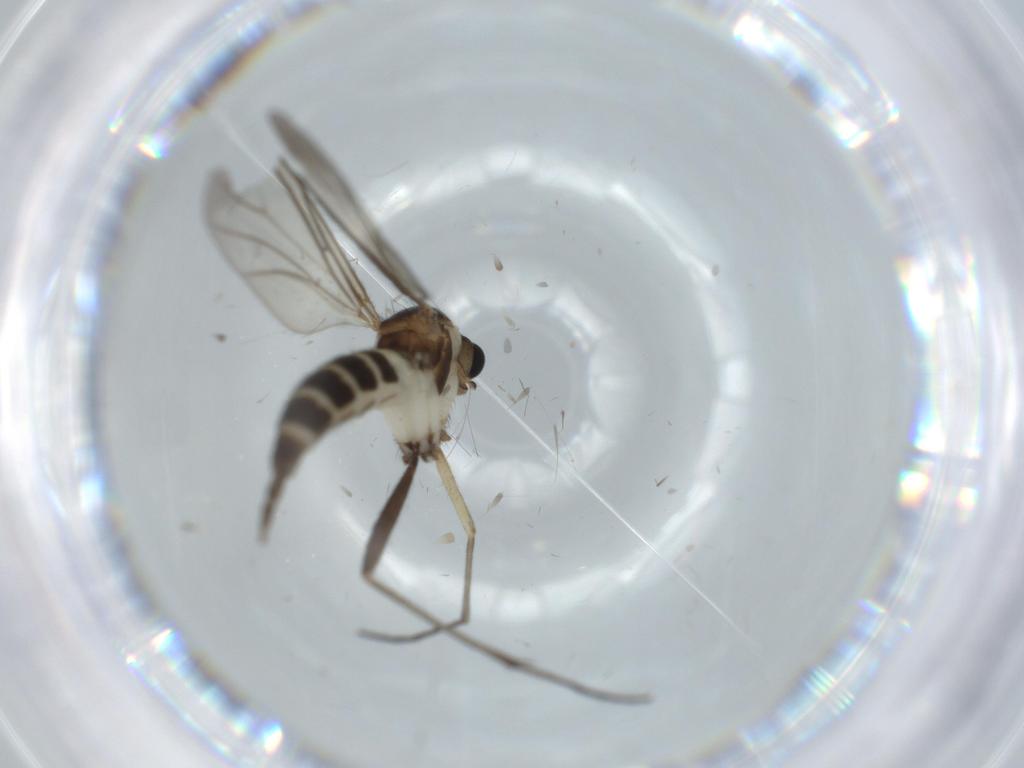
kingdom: Animalia
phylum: Arthropoda
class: Insecta
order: Diptera
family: Sciaridae
